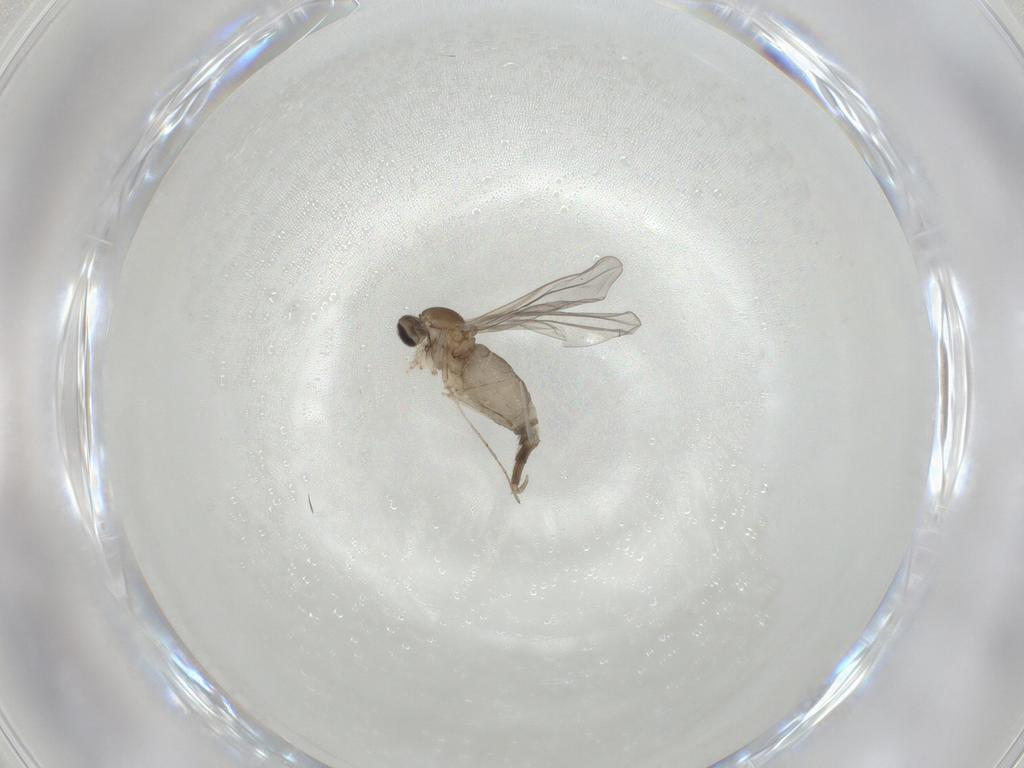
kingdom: Animalia
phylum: Arthropoda
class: Insecta
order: Diptera
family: Cecidomyiidae
